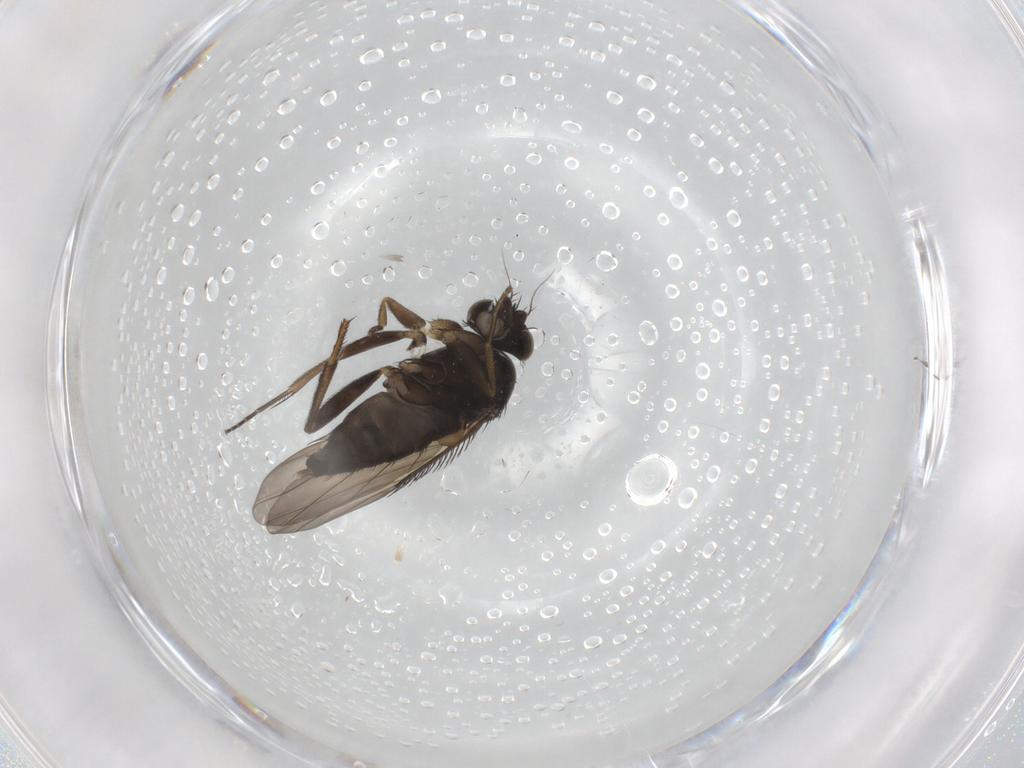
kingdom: Animalia
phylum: Arthropoda
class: Insecta
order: Diptera
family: Phoridae
